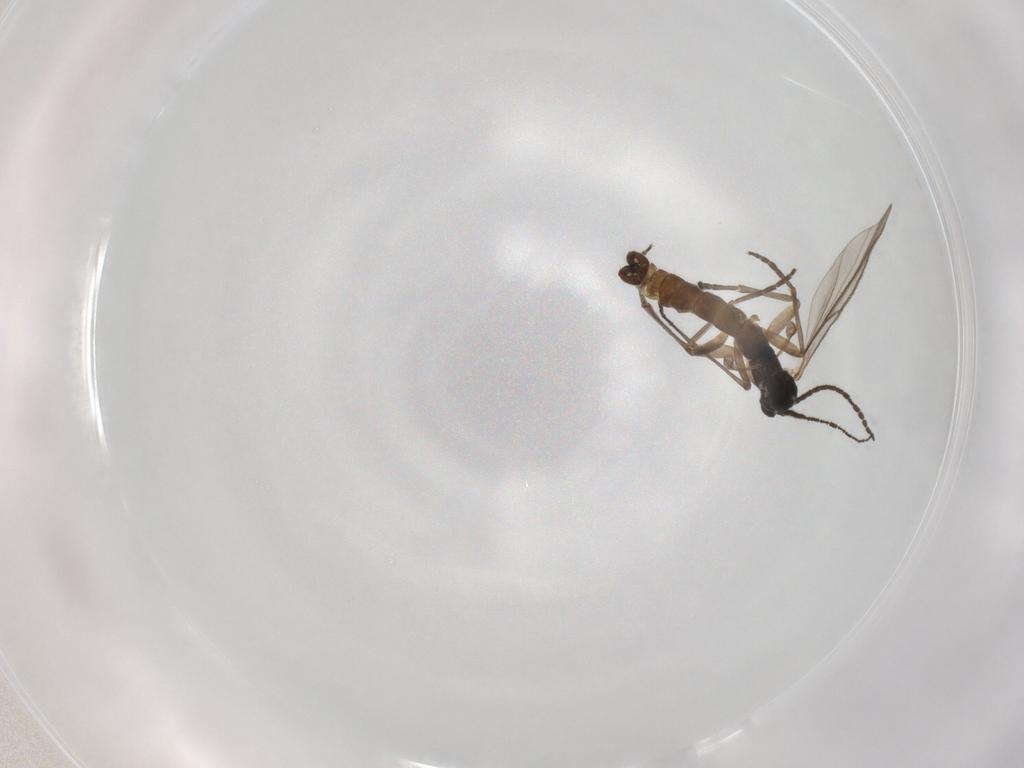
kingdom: Animalia
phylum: Arthropoda
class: Insecta
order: Diptera
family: Sciaridae
